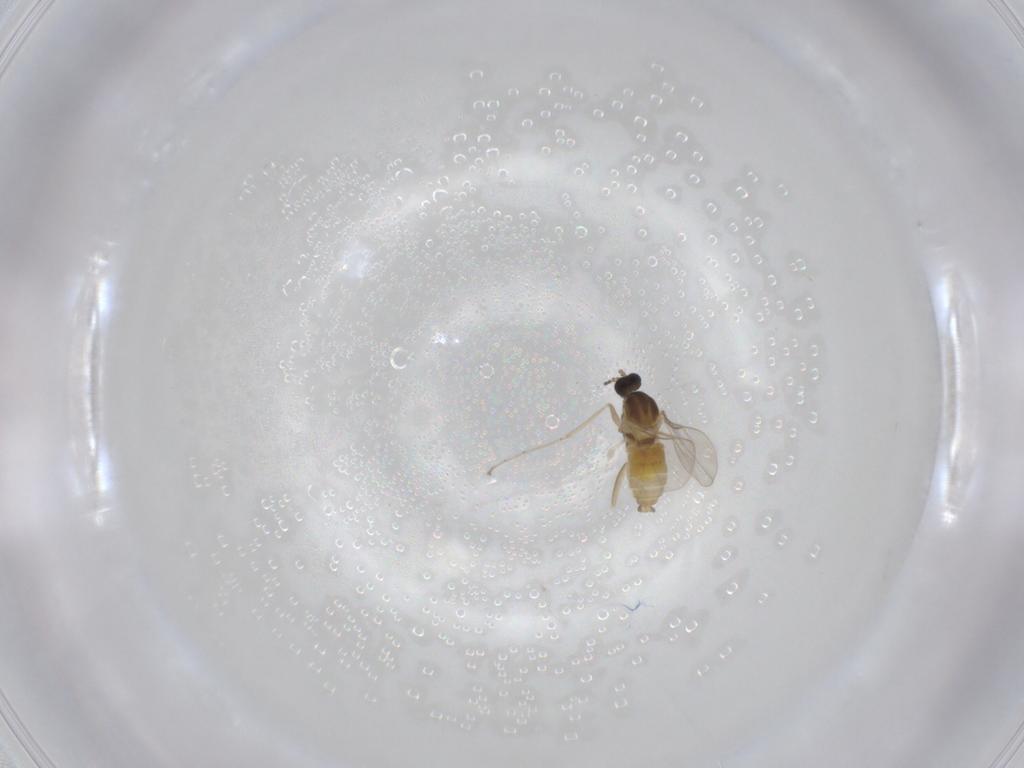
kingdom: Animalia
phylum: Arthropoda
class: Insecta
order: Diptera
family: Cecidomyiidae
